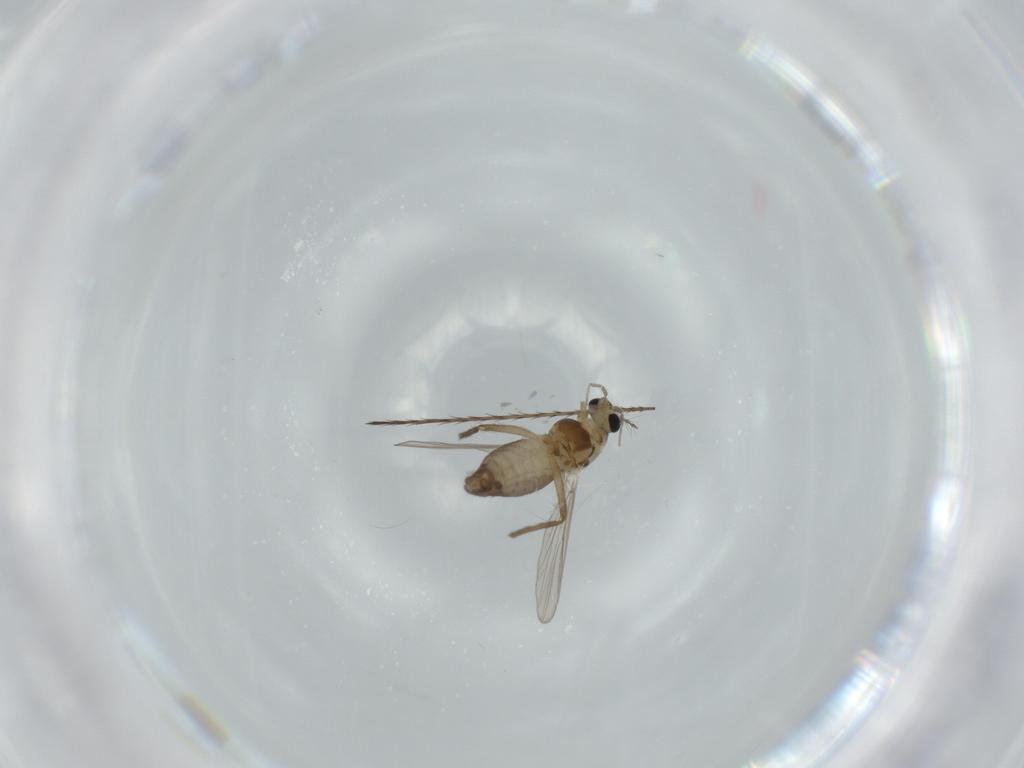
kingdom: Animalia
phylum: Arthropoda
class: Insecta
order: Diptera
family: Chironomidae
